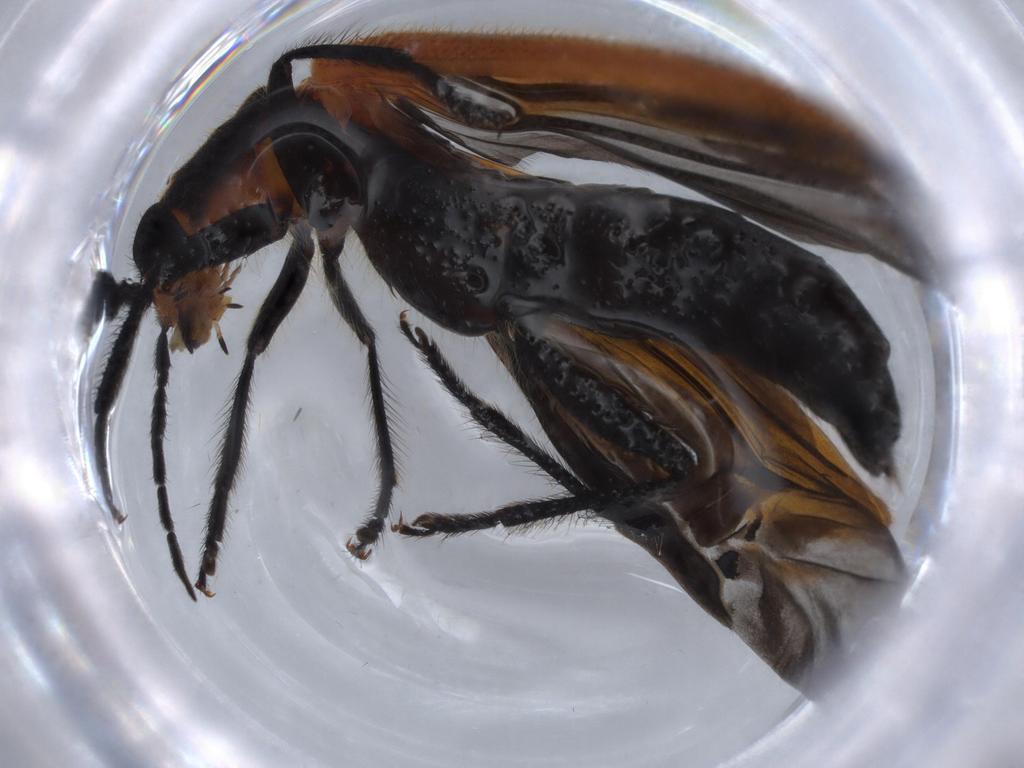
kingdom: Animalia
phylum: Arthropoda
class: Insecta
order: Coleoptera
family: Cleridae
